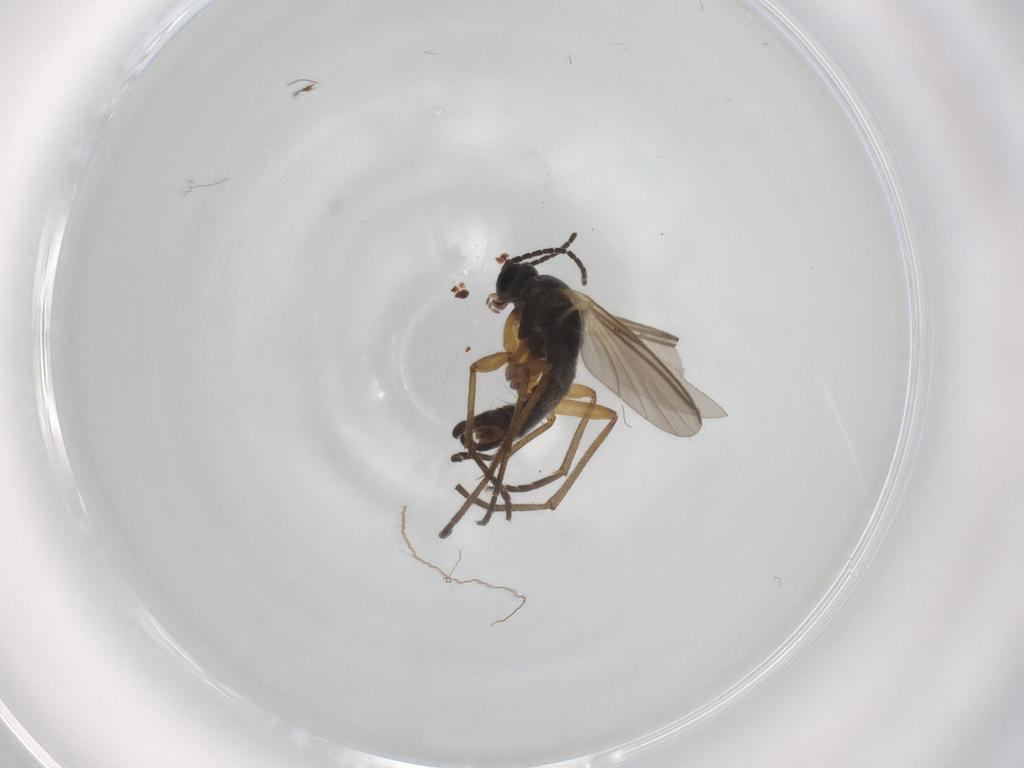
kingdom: Animalia
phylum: Arthropoda
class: Insecta
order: Diptera
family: Sciaridae
